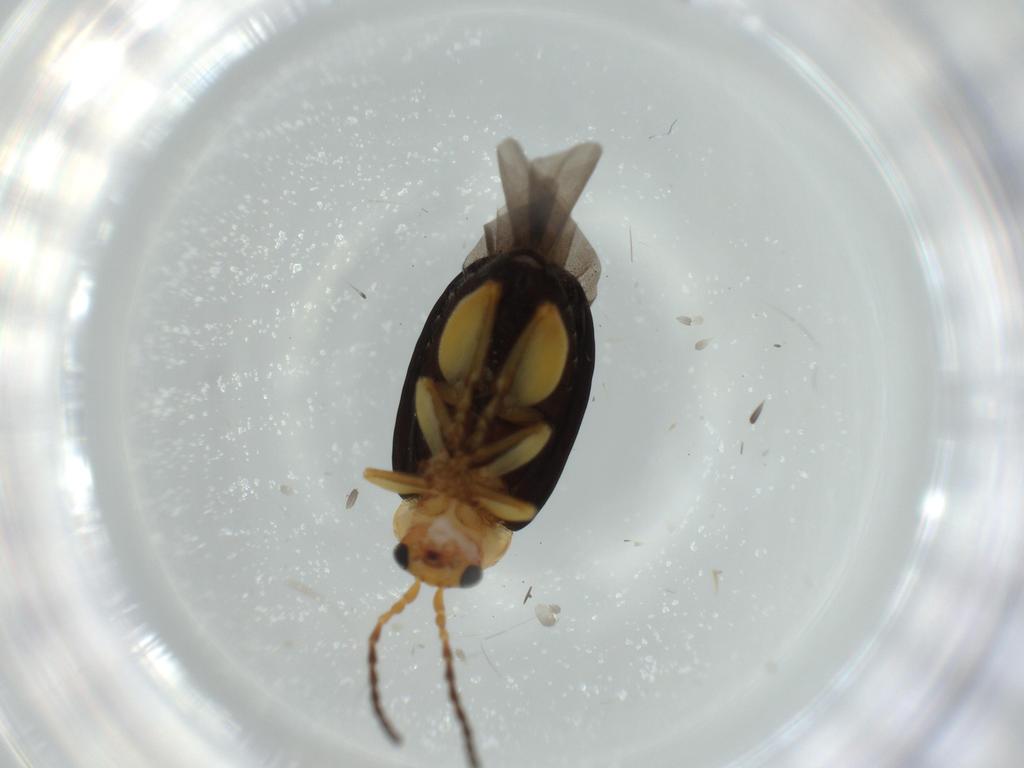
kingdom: Animalia
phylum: Arthropoda
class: Insecta
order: Coleoptera
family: Chrysomelidae
